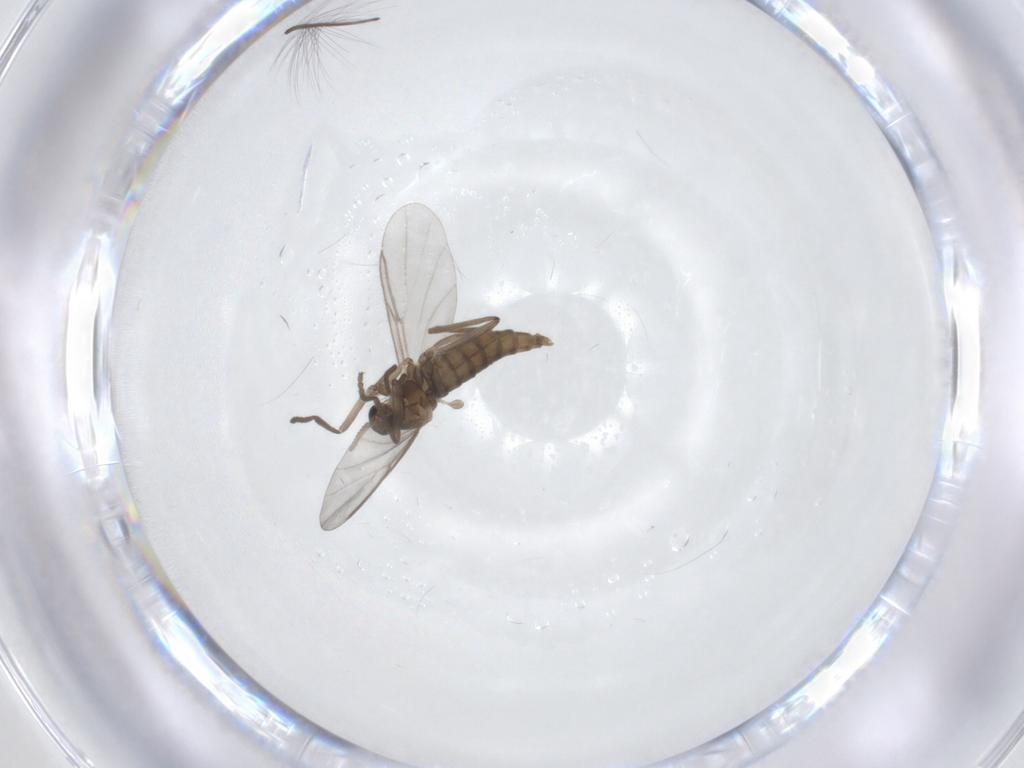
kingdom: Animalia
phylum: Arthropoda
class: Insecta
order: Diptera
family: Cecidomyiidae
